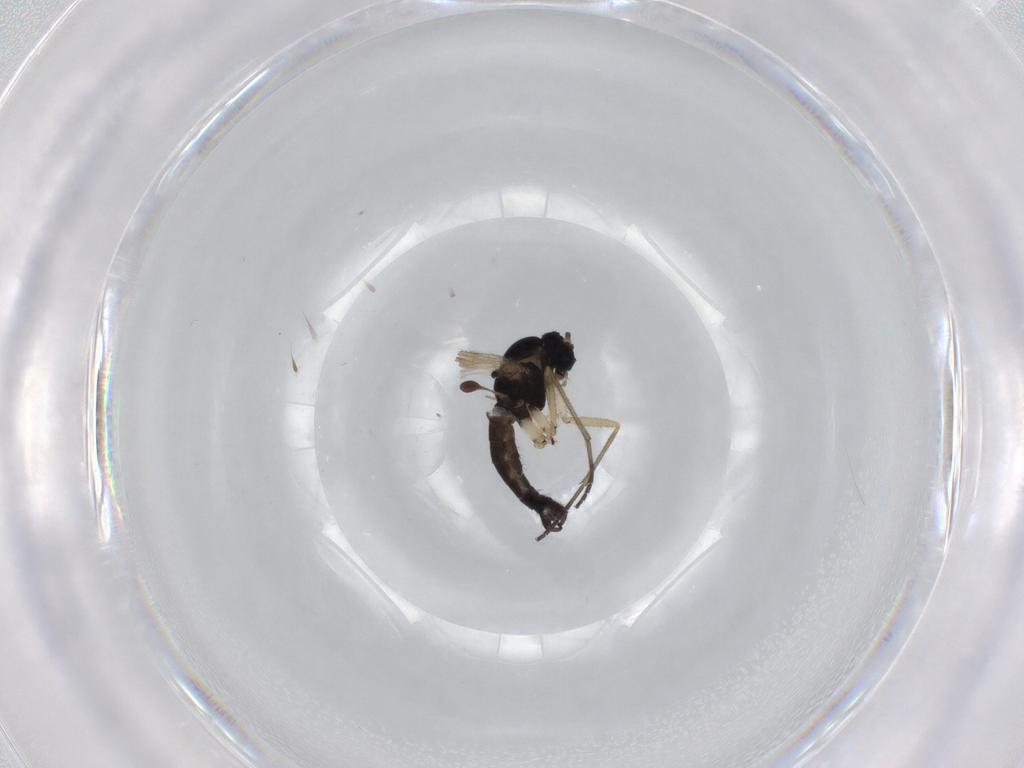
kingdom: Animalia
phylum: Arthropoda
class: Insecta
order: Diptera
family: Sciaridae
